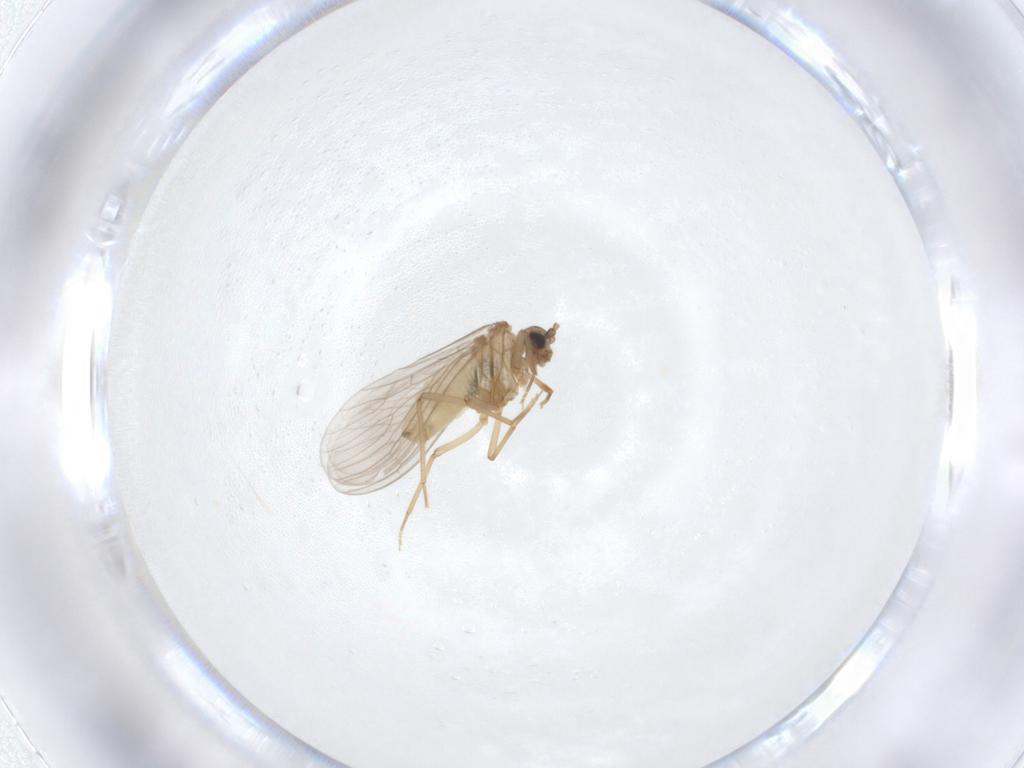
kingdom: Animalia
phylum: Arthropoda
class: Insecta
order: Neuroptera
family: Coniopterygidae
